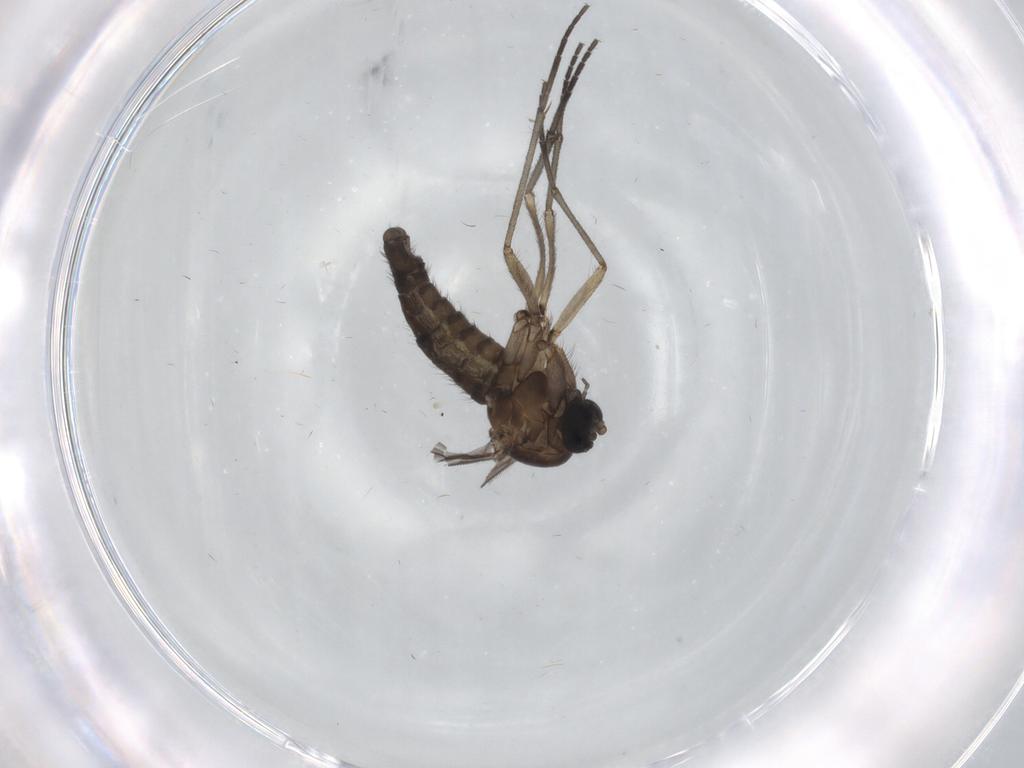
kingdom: Animalia
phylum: Arthropoda
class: Insecta
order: Diptera
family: Sciaridae
